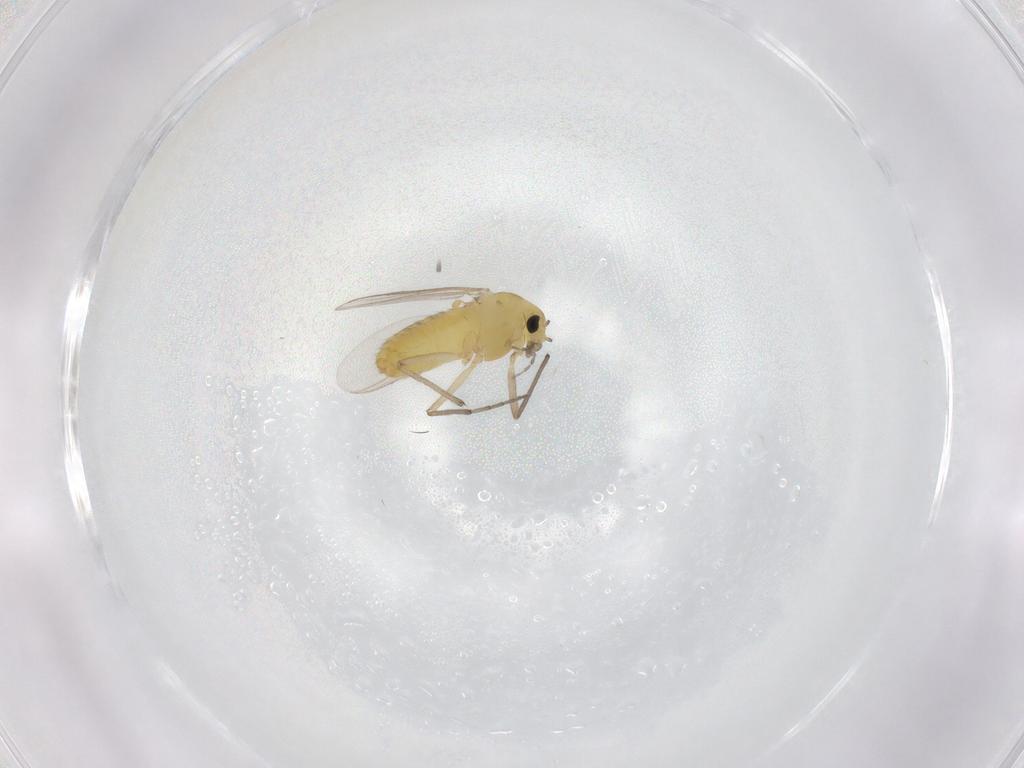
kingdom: Animalia
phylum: Arthropoda
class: Insecta
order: Diptera
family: Chironomidae
